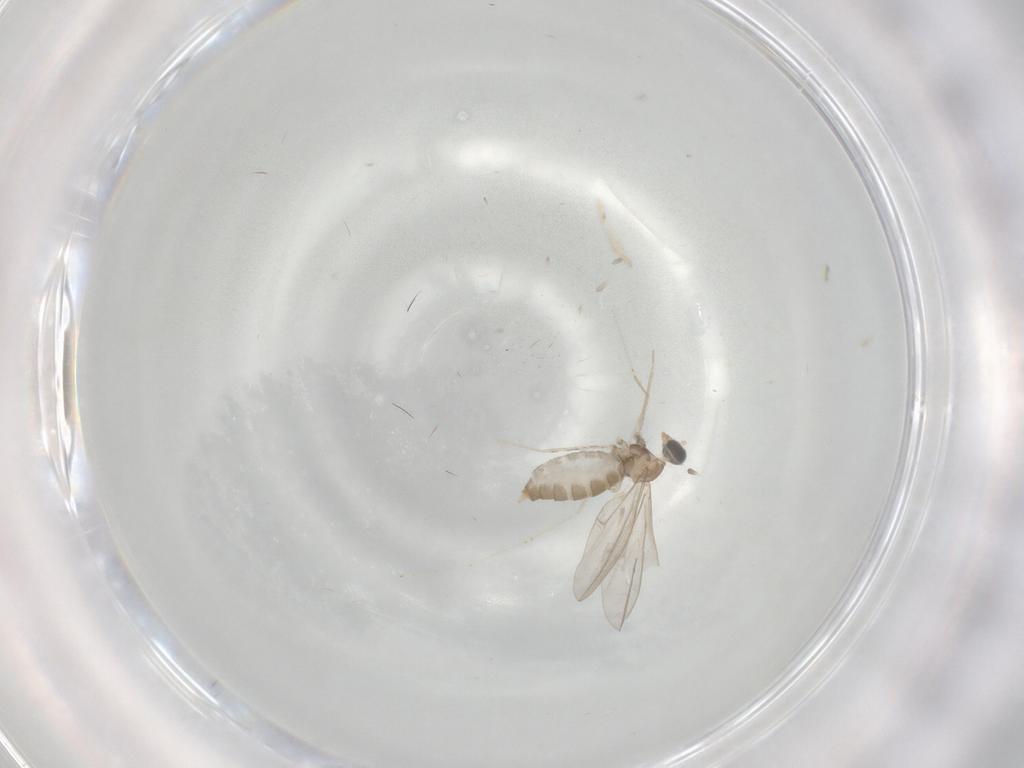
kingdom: Animalia
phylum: Arthropoda
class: Insecta
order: Diptera
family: Cecidomyiidae
